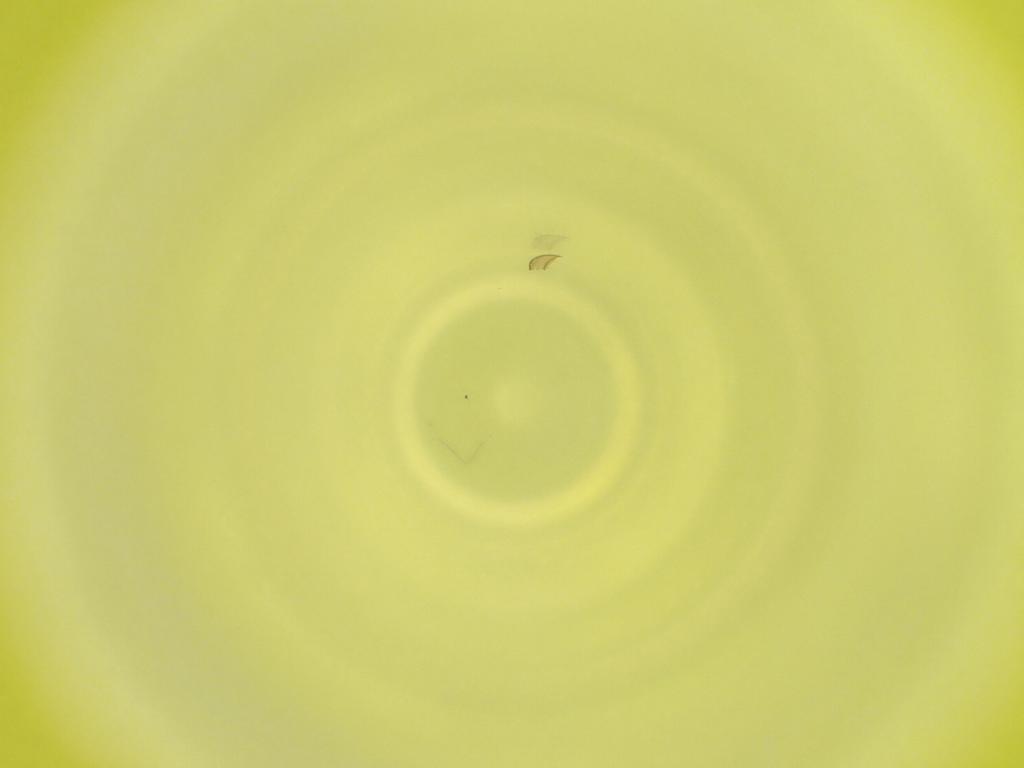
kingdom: Animalia
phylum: Arthropoda
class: Insecta
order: Diptera
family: Cecidomyiidae
